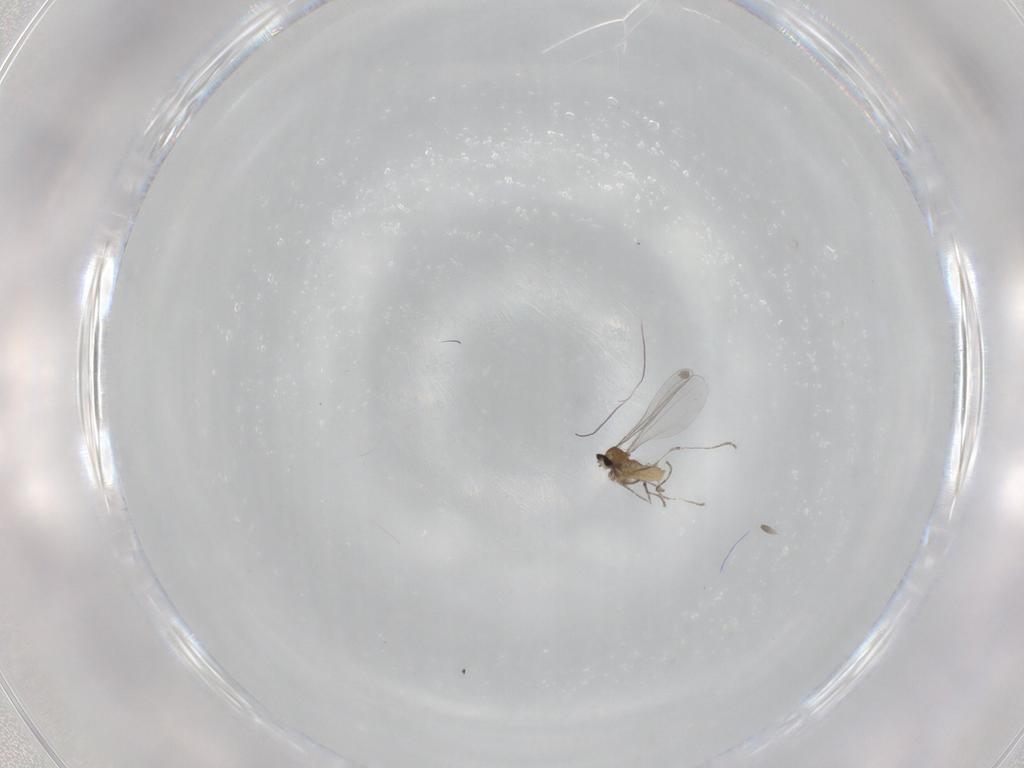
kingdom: Animalia
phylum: Arthropoda
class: Insecta
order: Diptera
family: Cecidomyiidae
